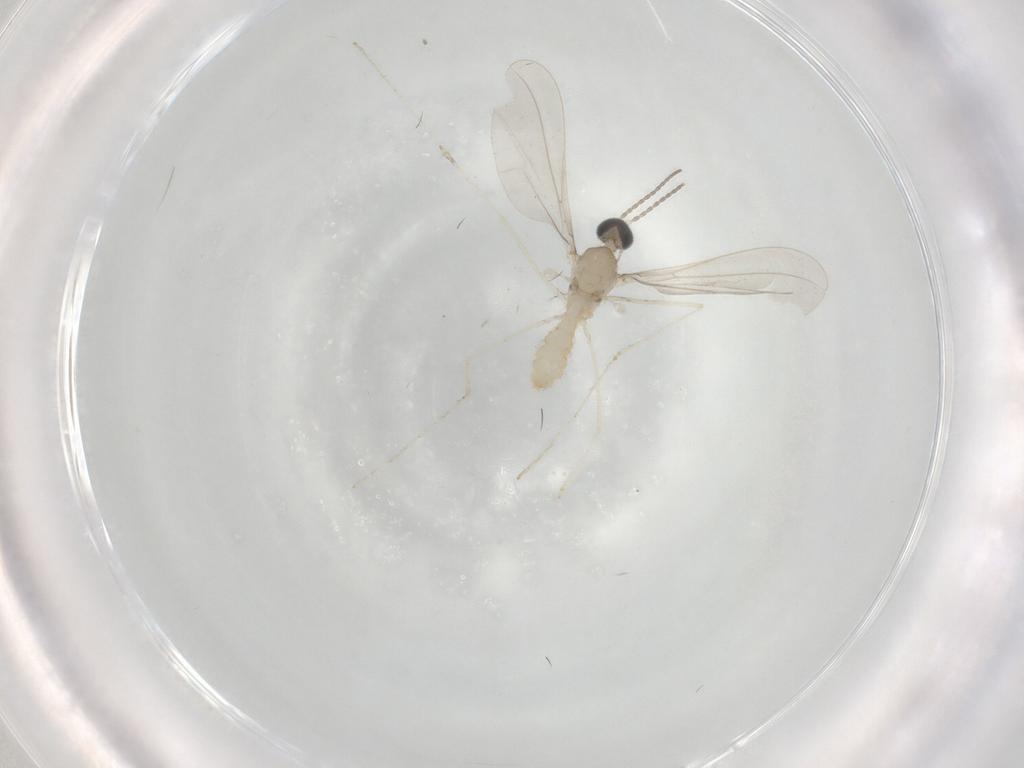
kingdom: Animalia
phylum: Arthropoda
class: Insecta
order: Diptera
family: Cecidomyiidae
